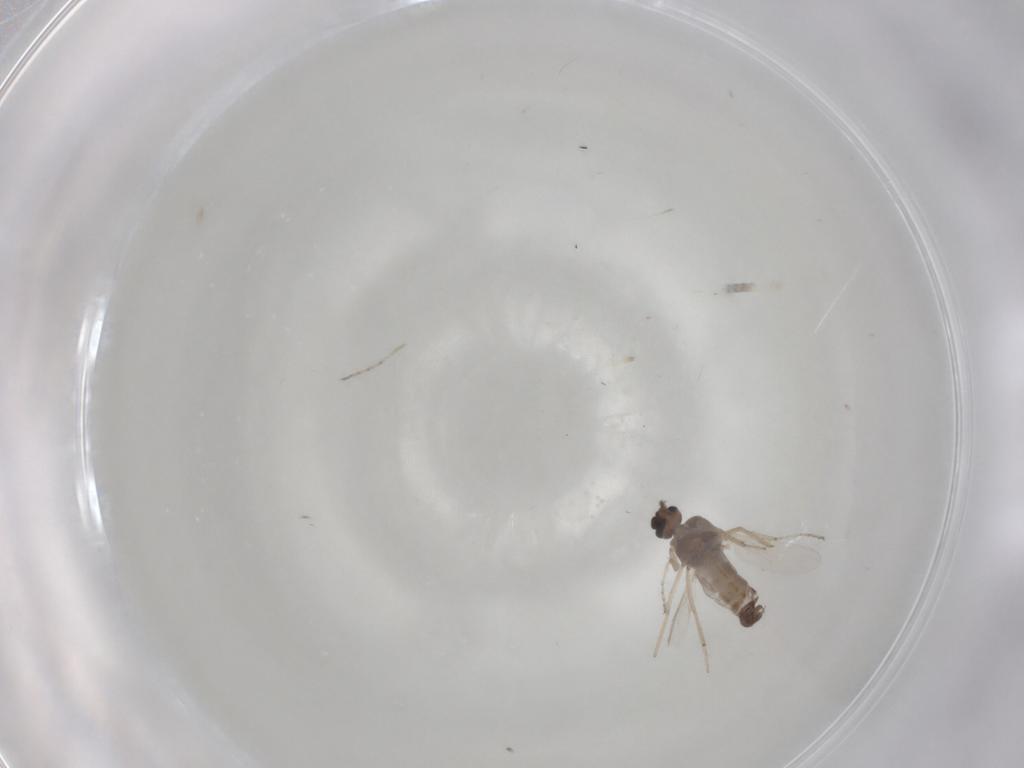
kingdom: Animalia
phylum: Arthropoda
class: Insecta
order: Diptera
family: Ceratopogonidae
